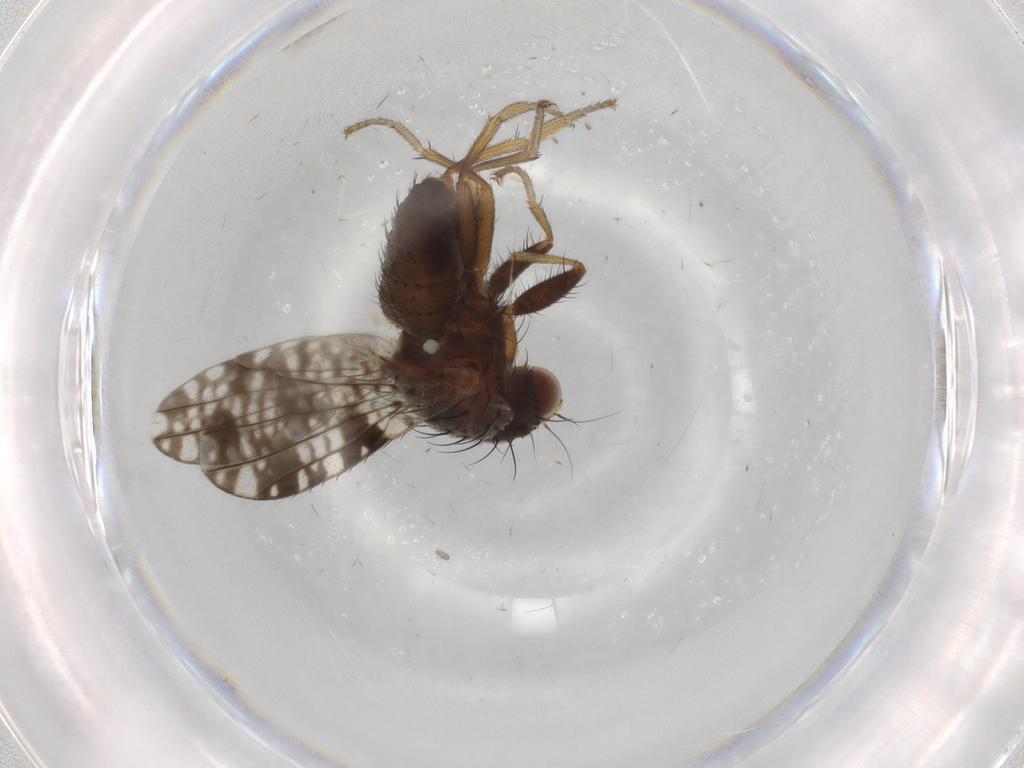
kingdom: Animalia
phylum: Arthropoda
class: Insecta
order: Diptera
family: Tephritidae
